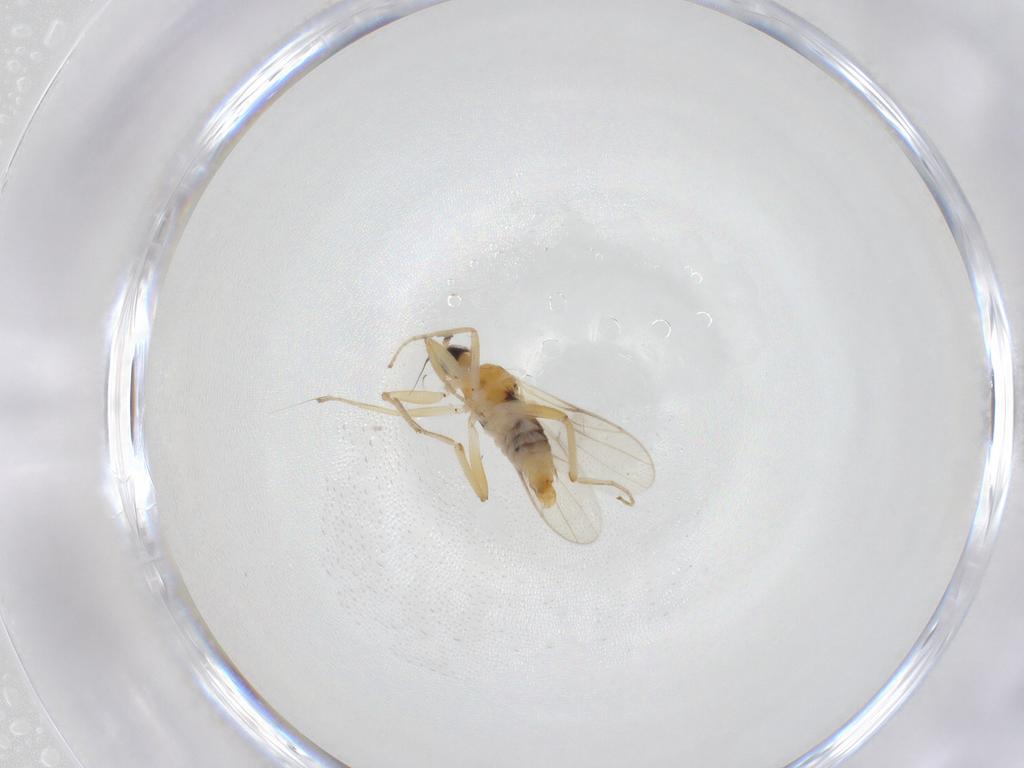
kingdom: Animalia
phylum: Arthropoda
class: Insecta
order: Diptera
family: Hybotidae
